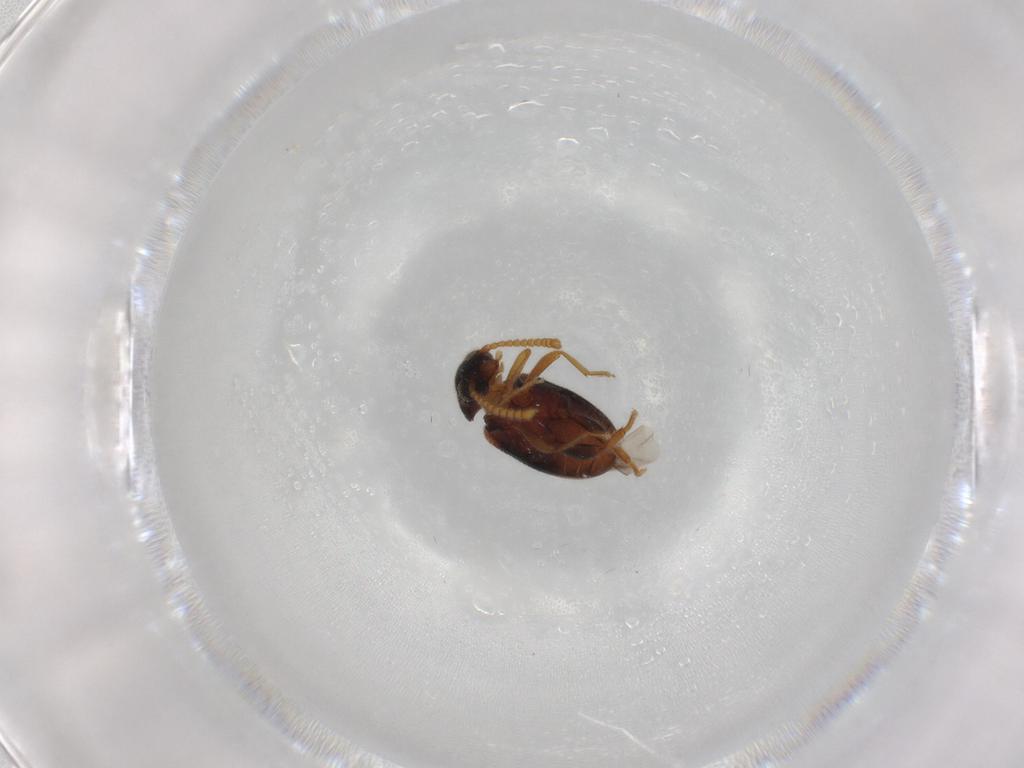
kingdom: Animalia
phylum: Arthropoda
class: Insecta
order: Coleoptera
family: Aderidae
